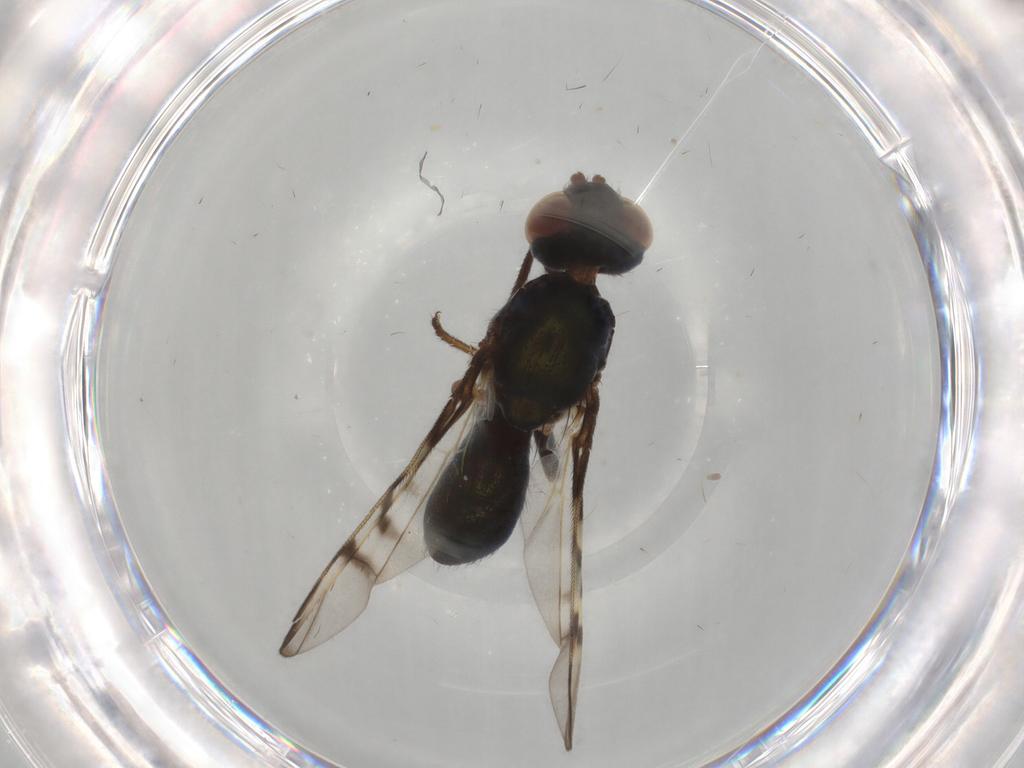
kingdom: Animalia
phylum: Arthropoda
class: Insecta
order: Diptera
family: Platystomatidae
